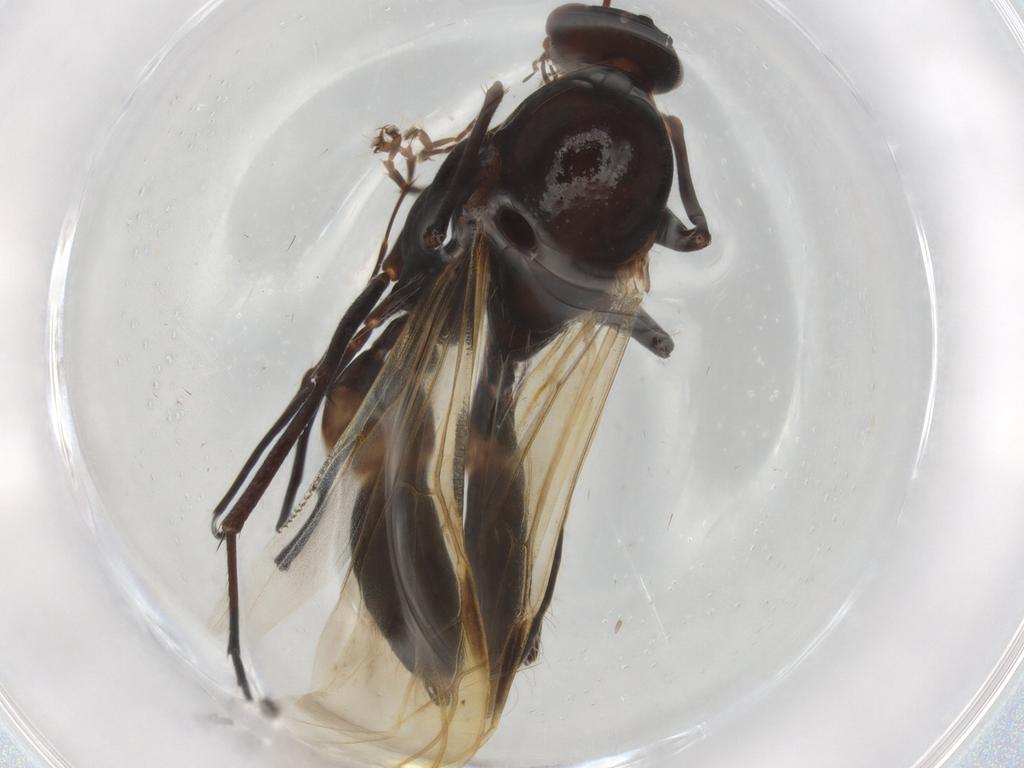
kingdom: Animalia
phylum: Arthropoda
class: Insecta
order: Hymenoptera
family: Formicidae
